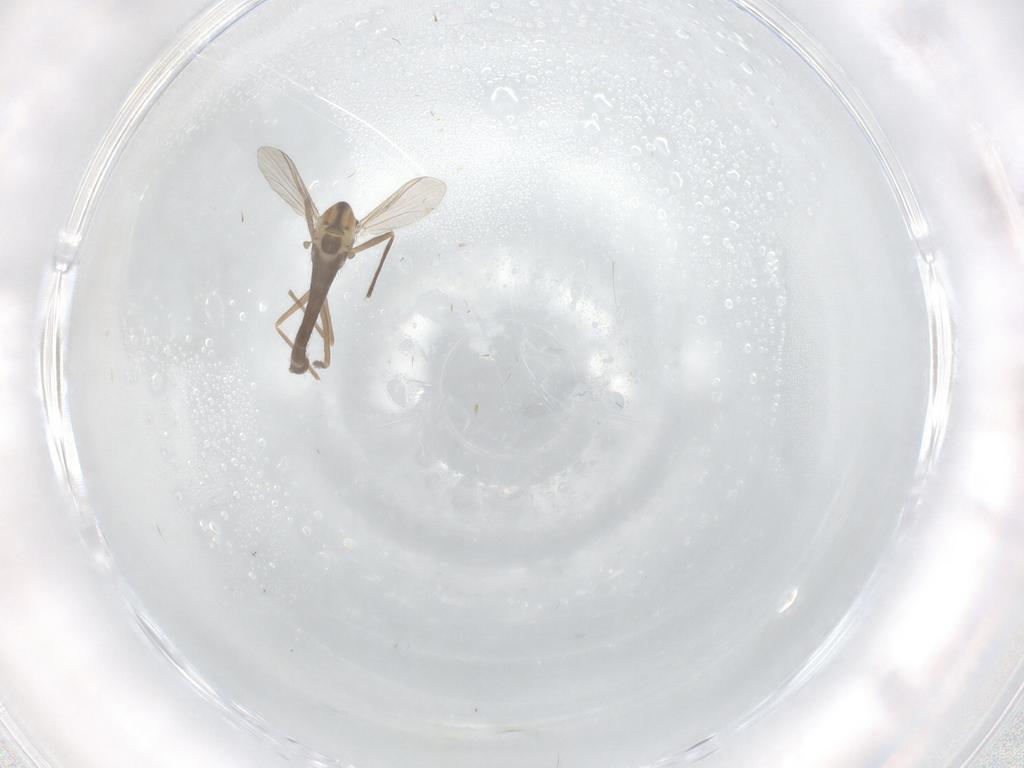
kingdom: Animalia
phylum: Arthropoda
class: Insecta
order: Diptera
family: Chironomidae
